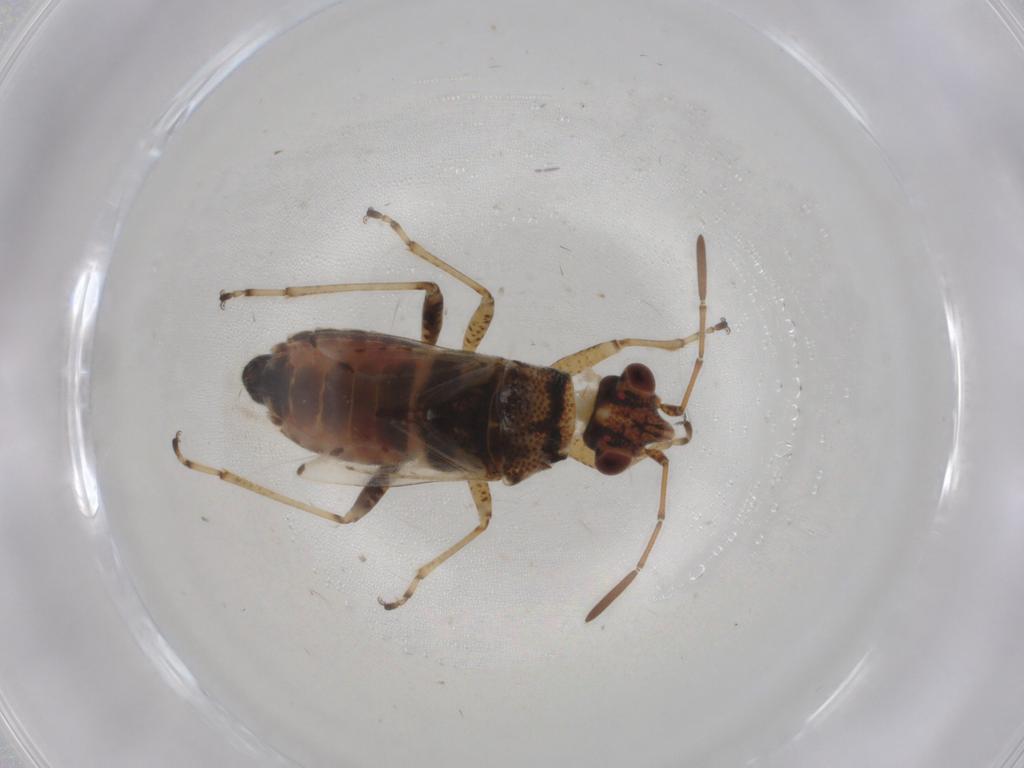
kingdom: Animalia
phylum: Arthropoda
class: Insecta
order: Hemiptera
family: Lygaeidae
